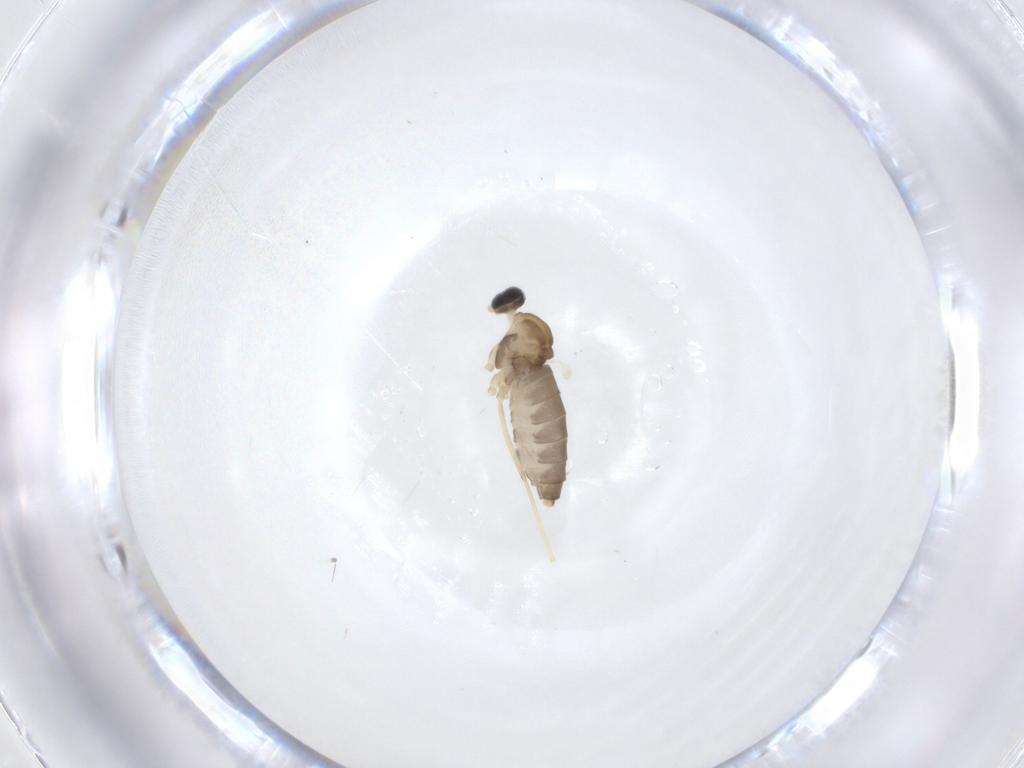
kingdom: Animalia
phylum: Arthropoda
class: Insecta
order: Diptera
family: Cecidomyiidae
